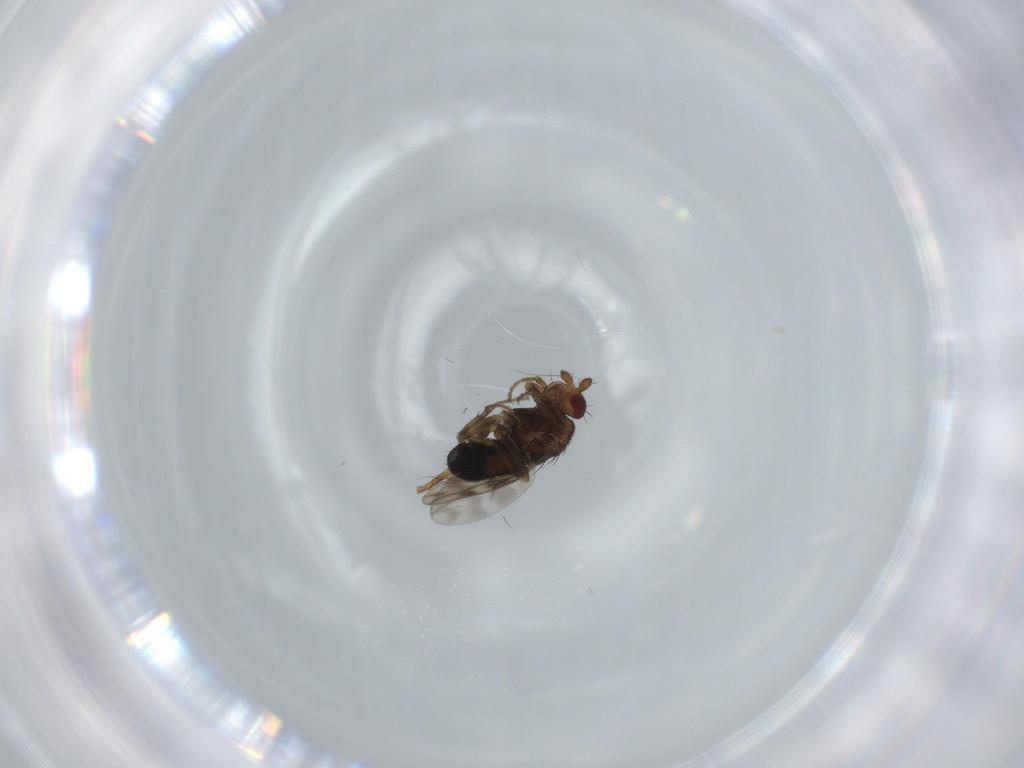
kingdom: Animalia
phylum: Arthropoda
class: Insecta
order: Diptera
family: Sphaeroceridae
